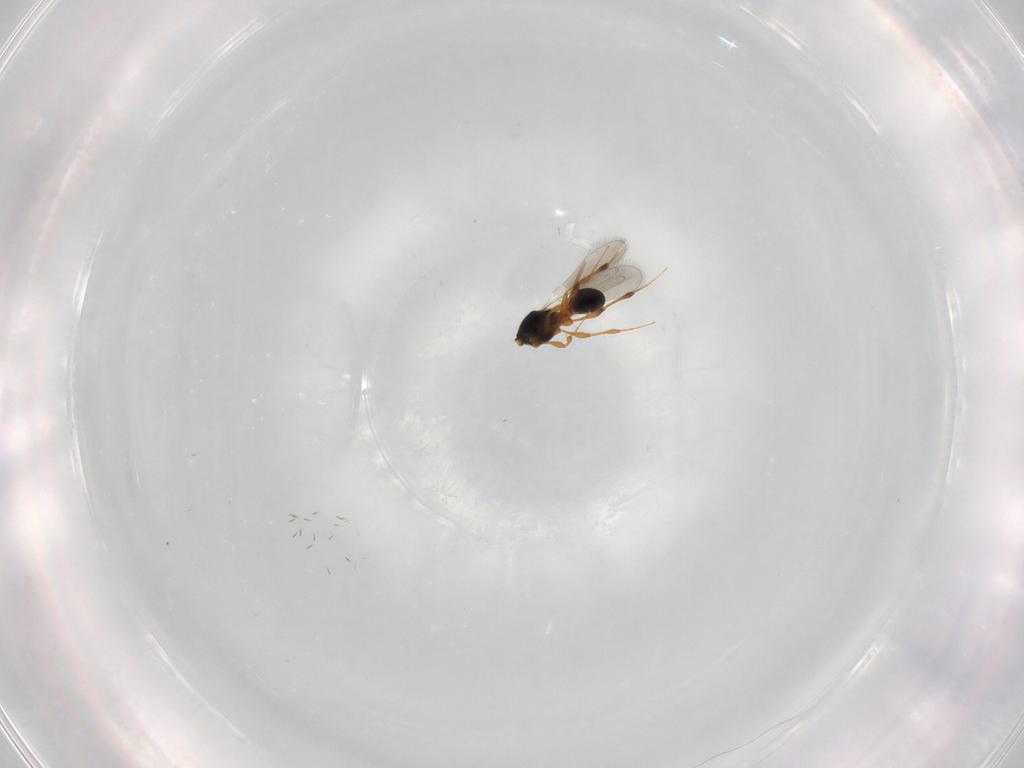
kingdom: Animalia
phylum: Arthropoda
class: Insecta
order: Hymenoptera
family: Platygastridae
